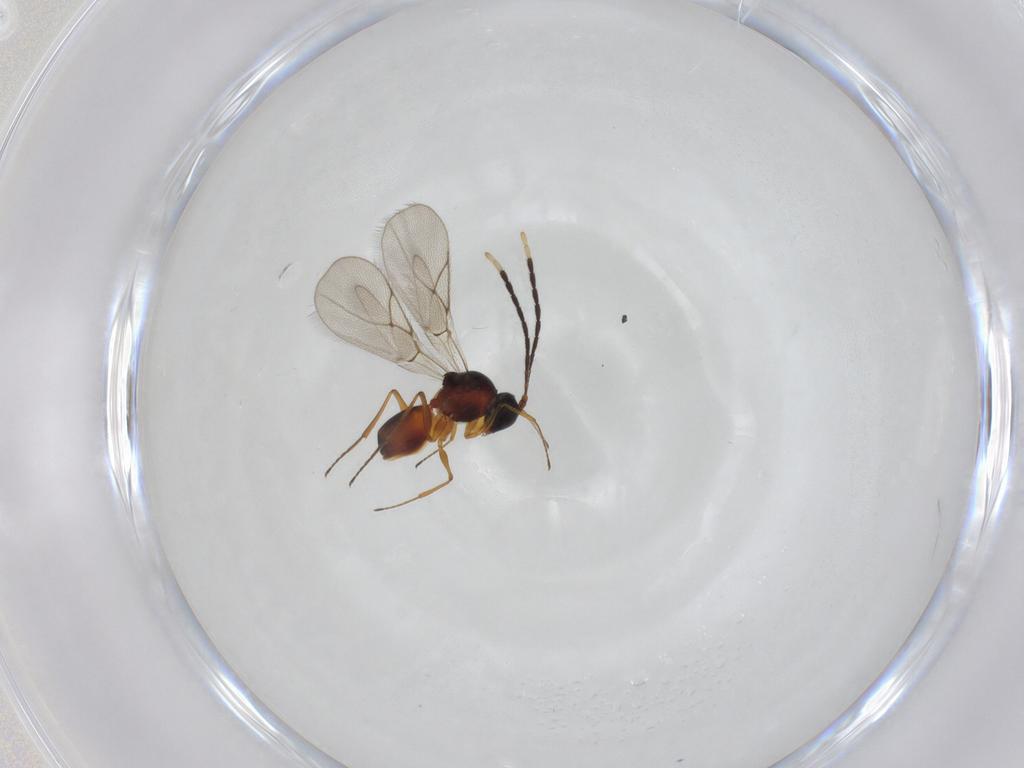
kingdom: Animalia
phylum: Arthropoda
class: Insecta
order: Hymenoptera
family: Figitidae
